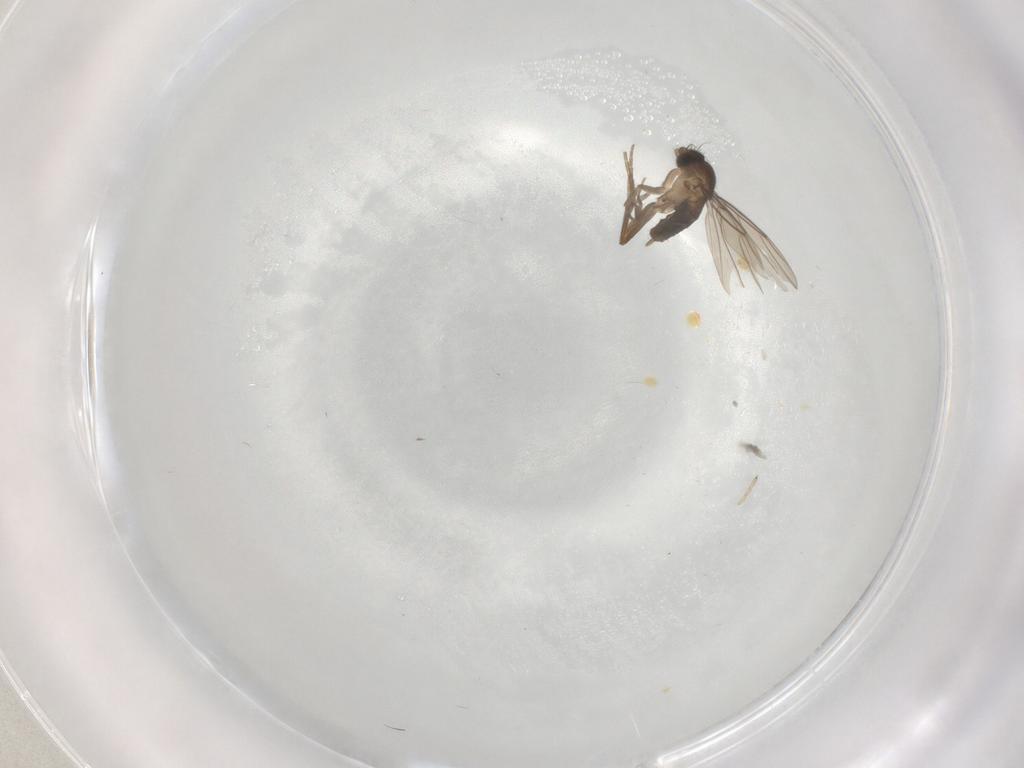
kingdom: Animalia
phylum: Arthropoda
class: Insecta
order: Diptera
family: Phoridae
